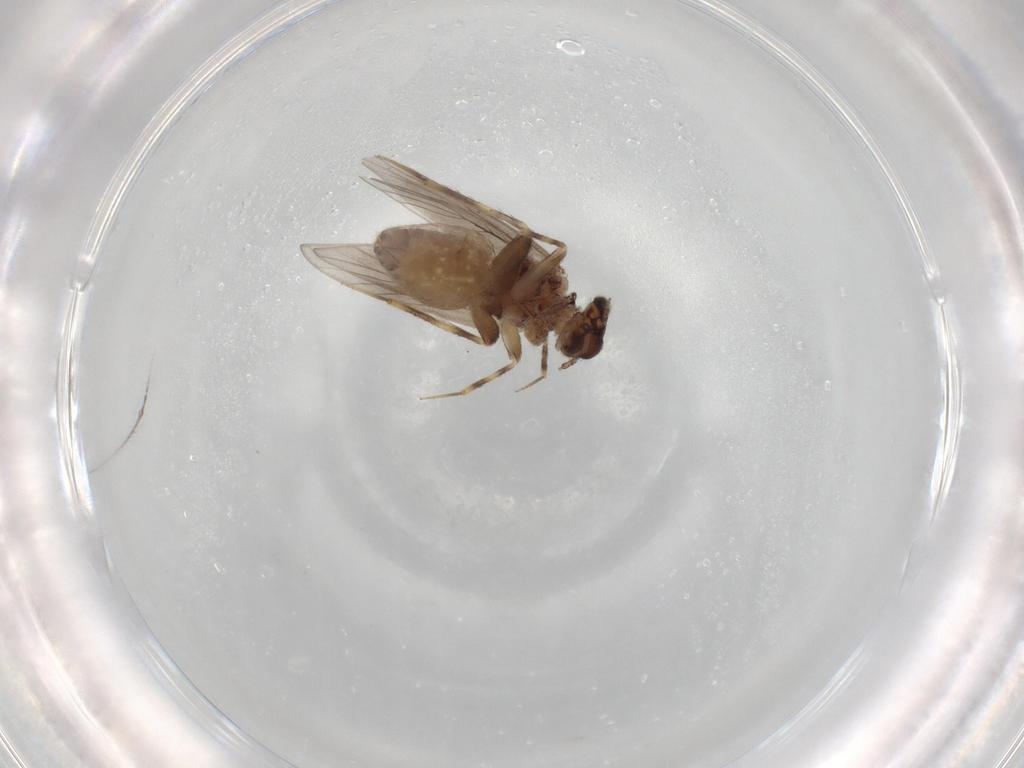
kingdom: Animalia
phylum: Arthropoda
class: Insecta
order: Psocodea
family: Lepidopsocidae
